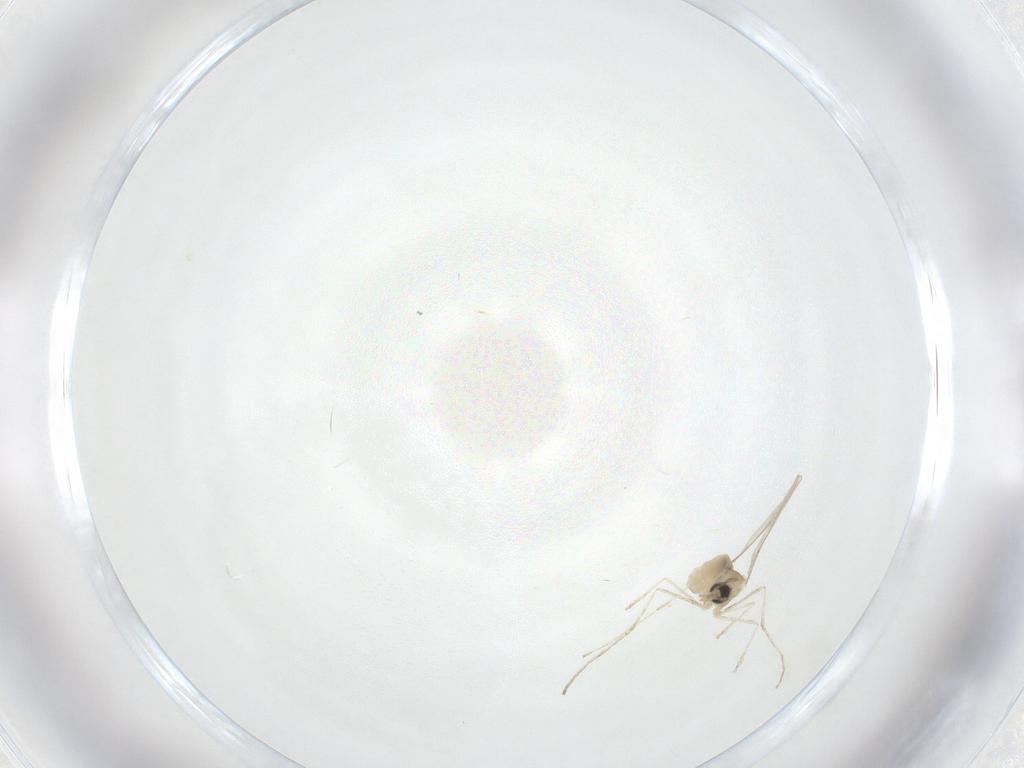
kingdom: Animalia
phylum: Arthropoda
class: Insecta
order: Diptera
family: Cecidomyiidae
